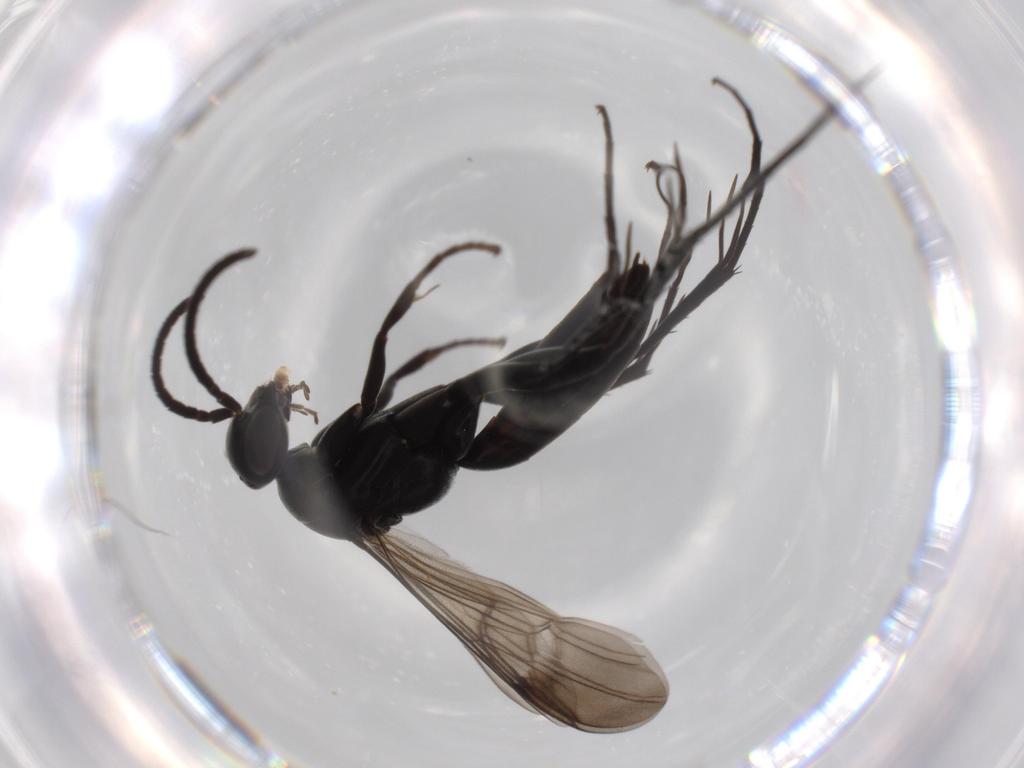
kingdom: Animalia
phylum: Arthropoda
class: Insecta
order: Hymenoptera
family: Pompilidae
